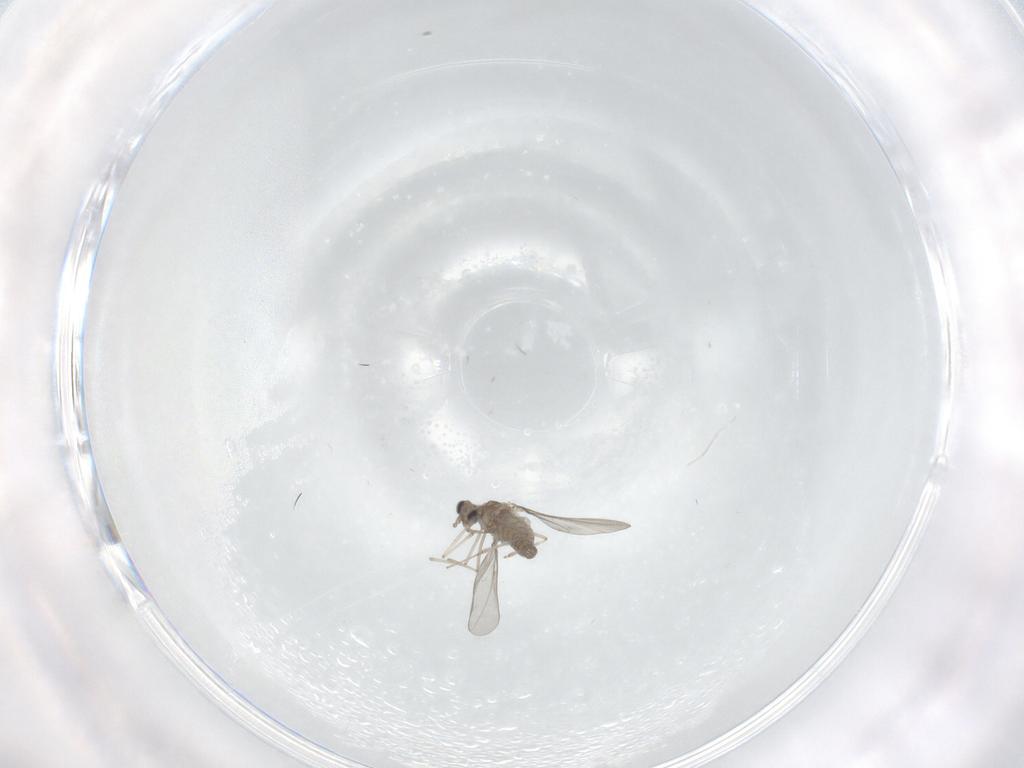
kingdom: Animalia
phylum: Arthropoda
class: Insecta
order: Diptera
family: Cecidomyiidae
